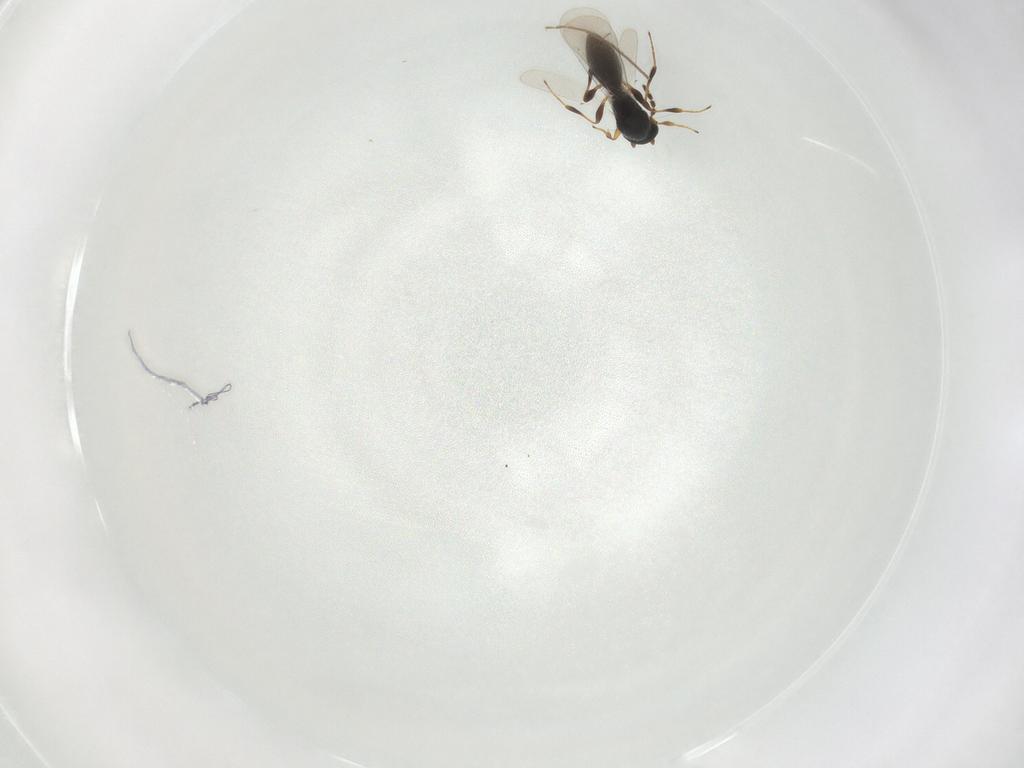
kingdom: Animalia
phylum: Arthropoda
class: Insecta
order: Hymenoptera
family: Platygastridae
